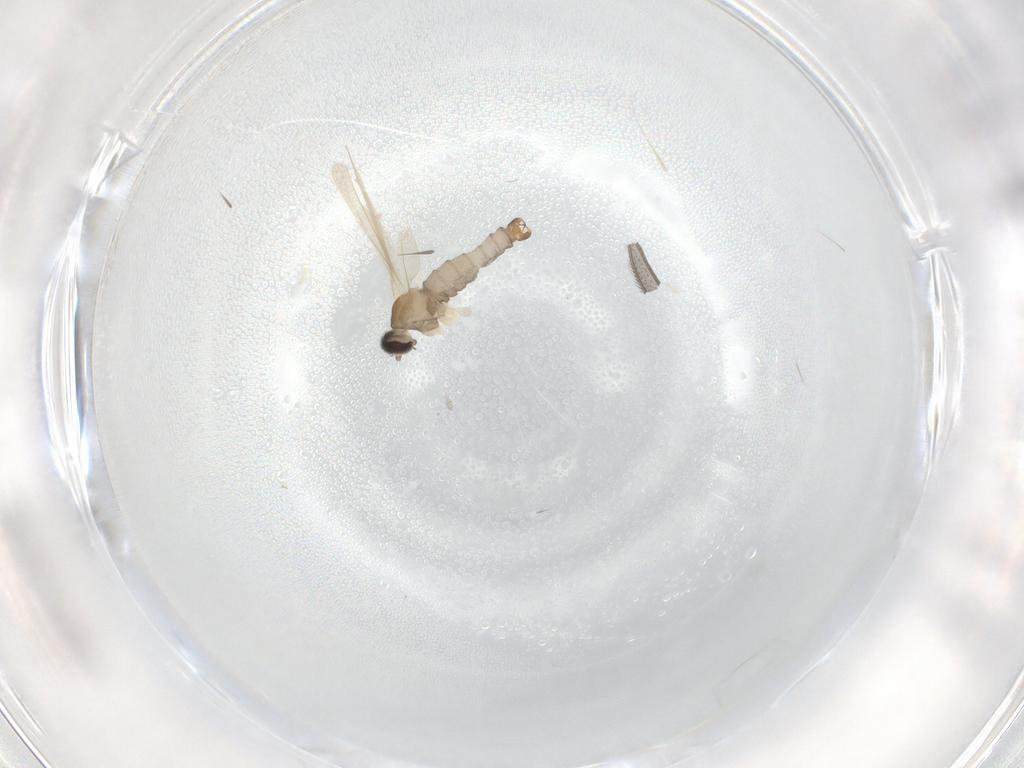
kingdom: Animalia
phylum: Arthropoda
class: Insecta
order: Diptera
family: Cecidomyiidae
